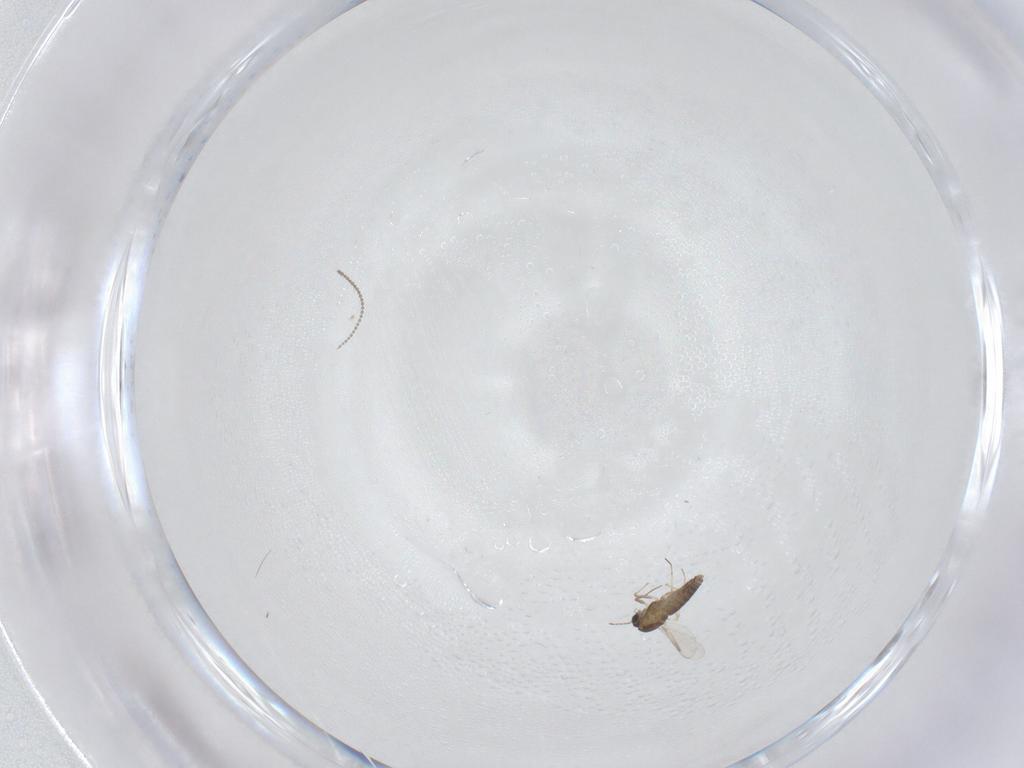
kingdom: Animalia
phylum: Arthropoda
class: Insecta
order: Diptera
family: Chironomidae
